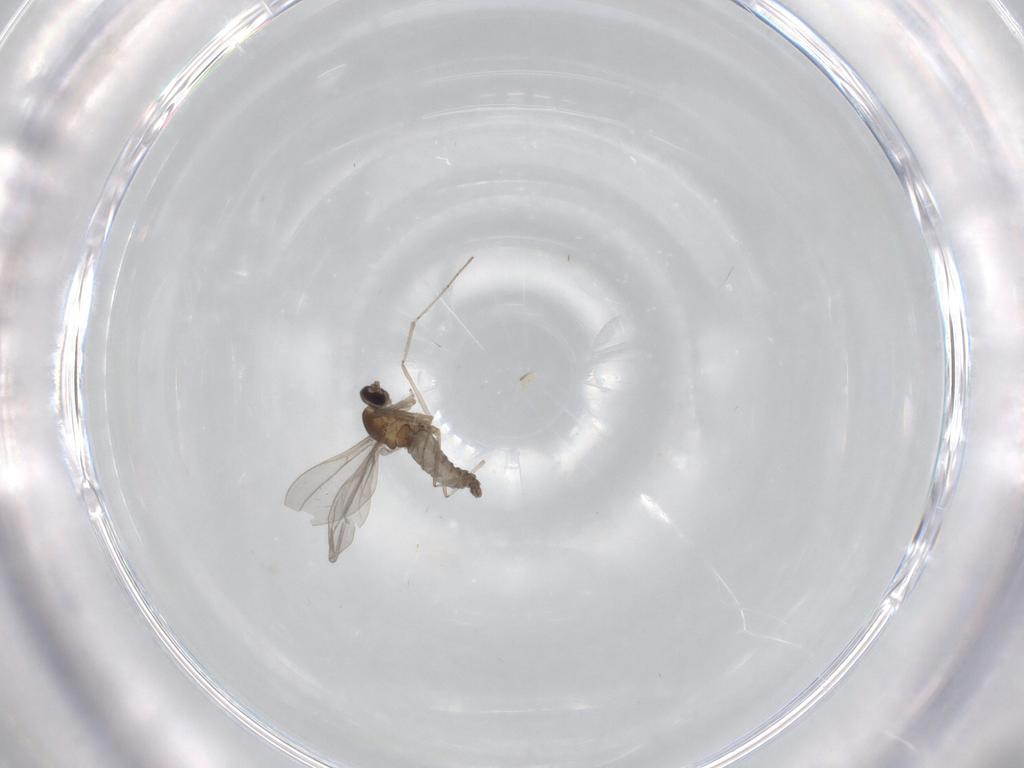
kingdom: Animalia
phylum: Arthropoda
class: Insecta
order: Diptera
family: Cecidomyiidae
